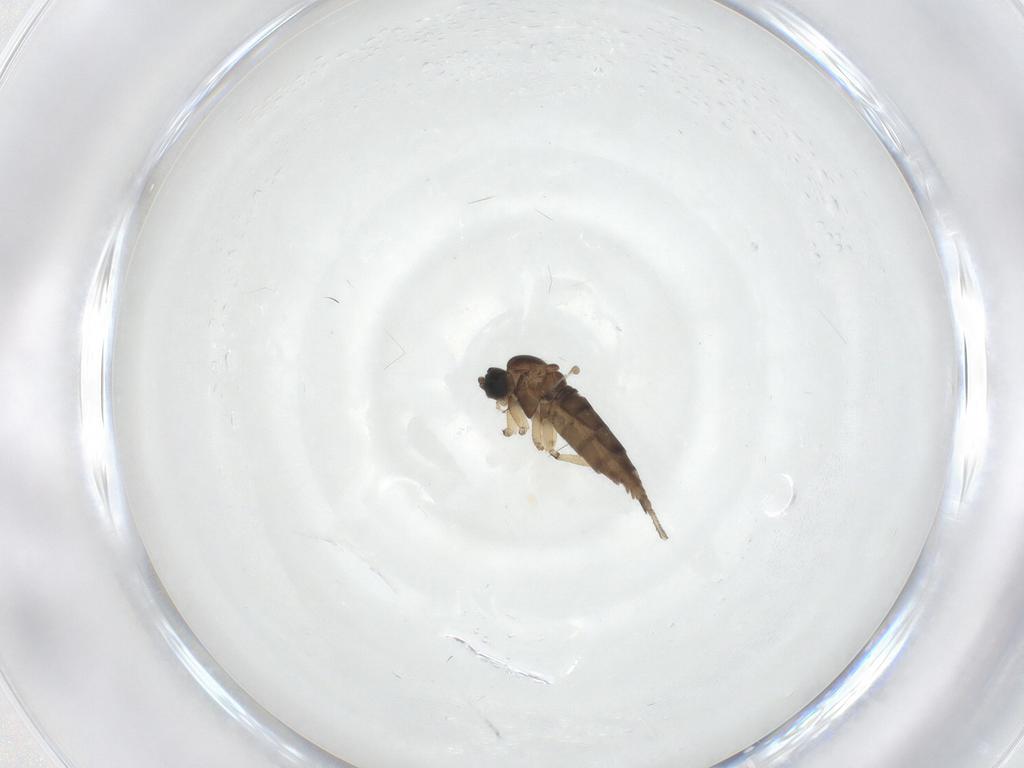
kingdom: Animalia
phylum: Arthropoda
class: Insecta
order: Diptera
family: Sciaridae
